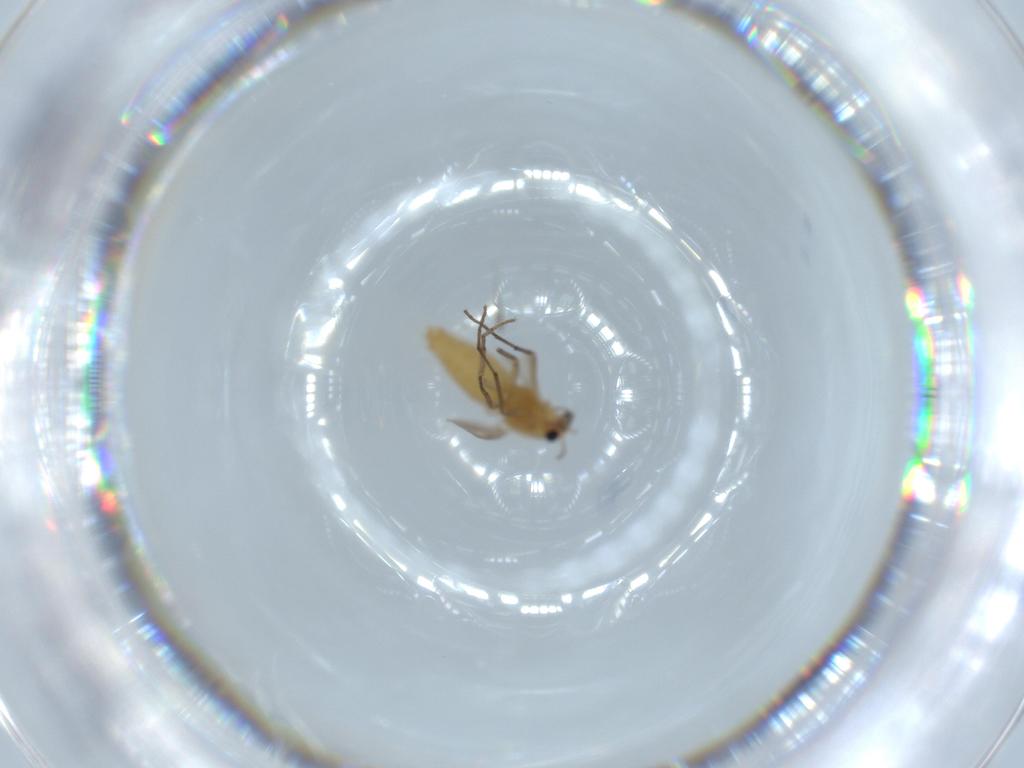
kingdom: Animalia
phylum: Arthropoda
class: Insecta
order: Diptera
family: Chironomidae
